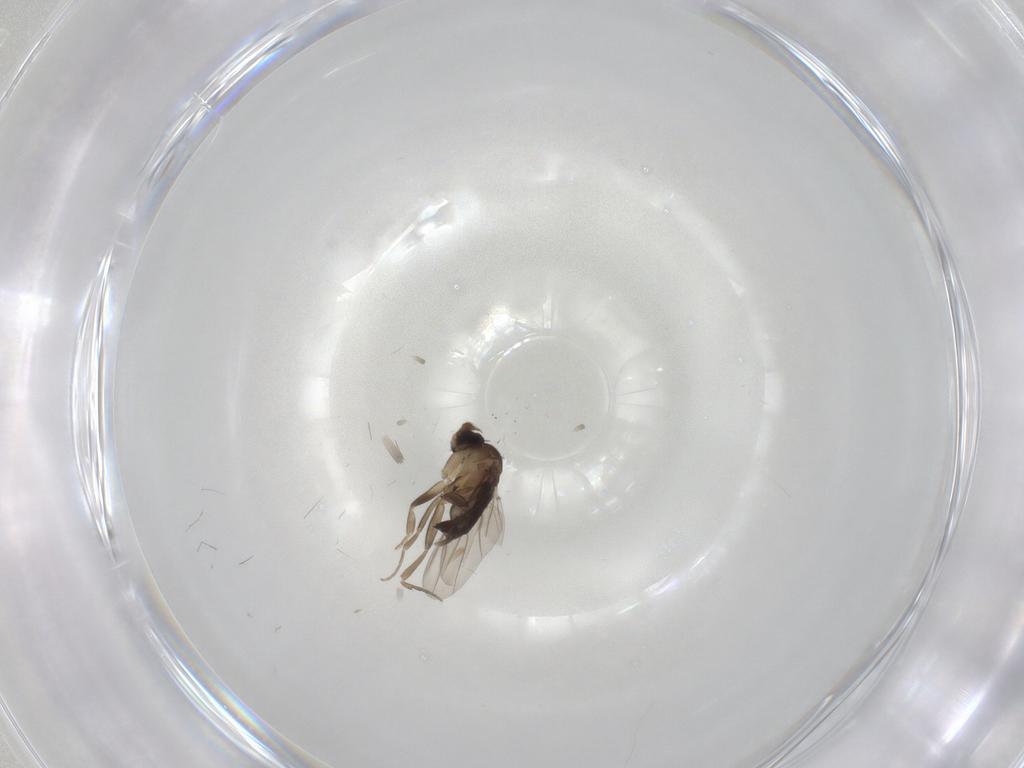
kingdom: Animalia
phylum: Arthropoda
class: Insecta
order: Diptera
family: Phoridae
